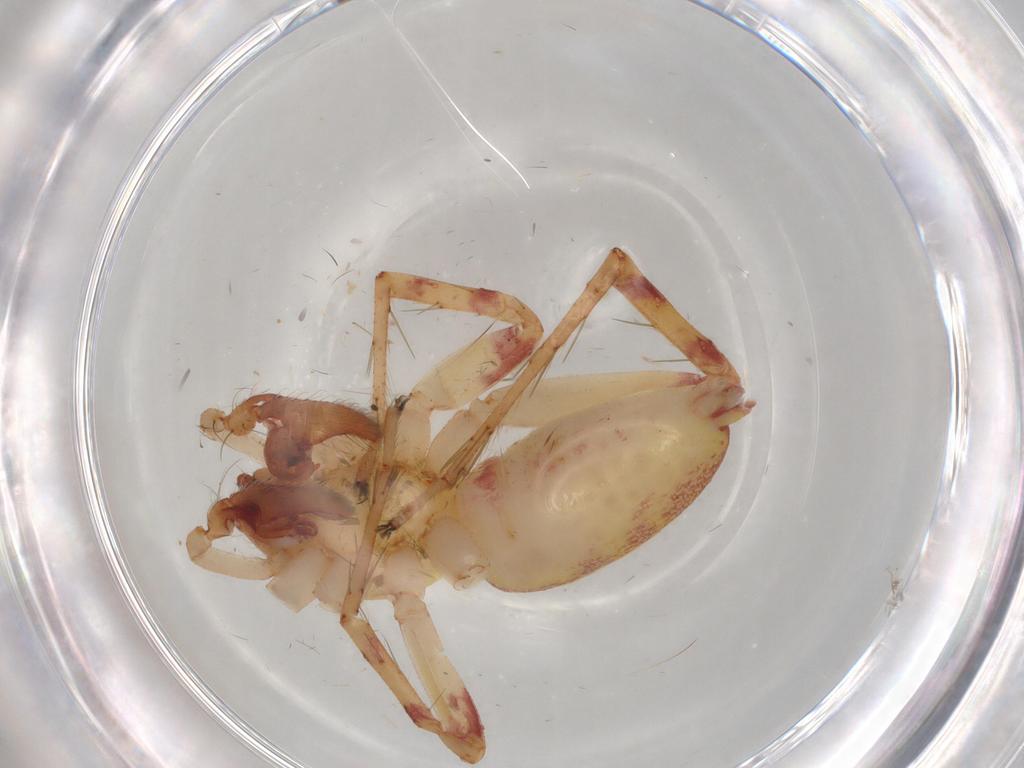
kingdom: Animalia
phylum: Arthropoda
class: Arachnida
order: Araneae
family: Anyphaenidae
